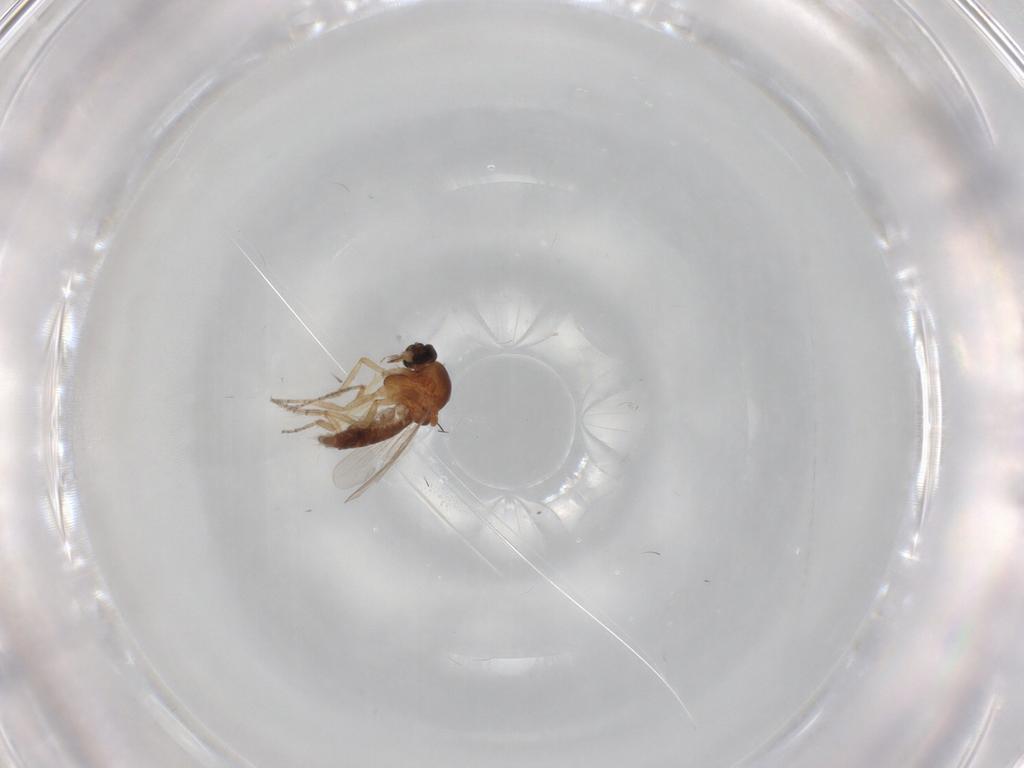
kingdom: Animalia
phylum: Arthropoda
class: Insecta
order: Diptera
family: Ceratopogonidae
